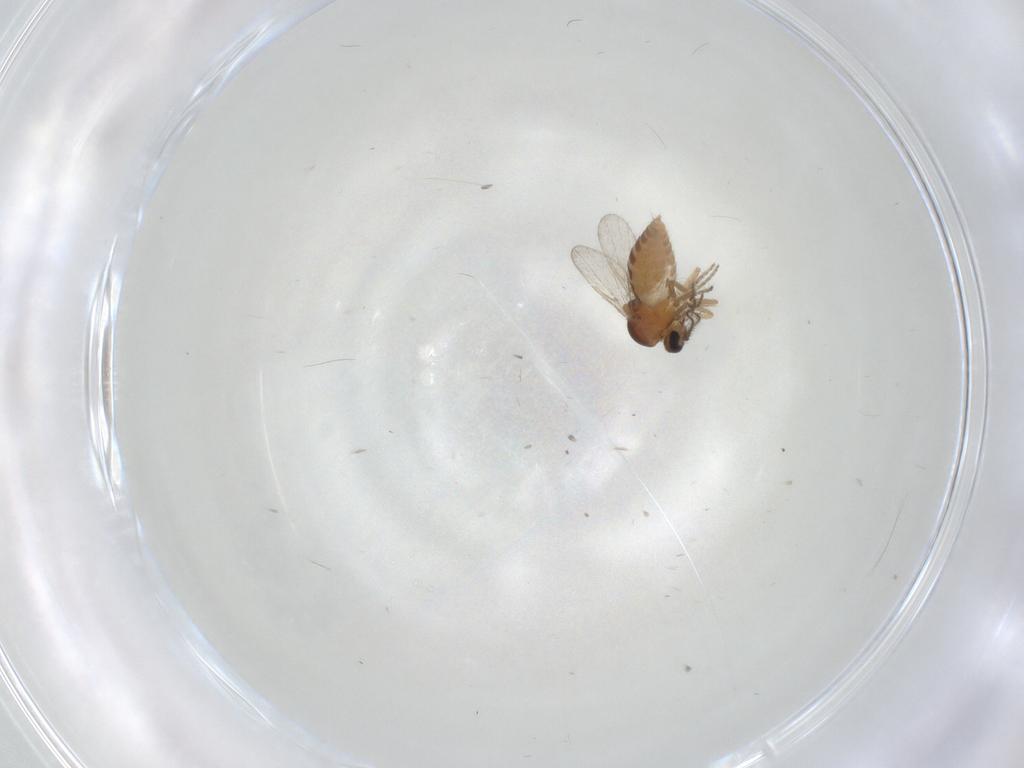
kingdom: Animalia
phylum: Arthropoda
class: Insecta
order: Diptera
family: Ceratopogonidae
